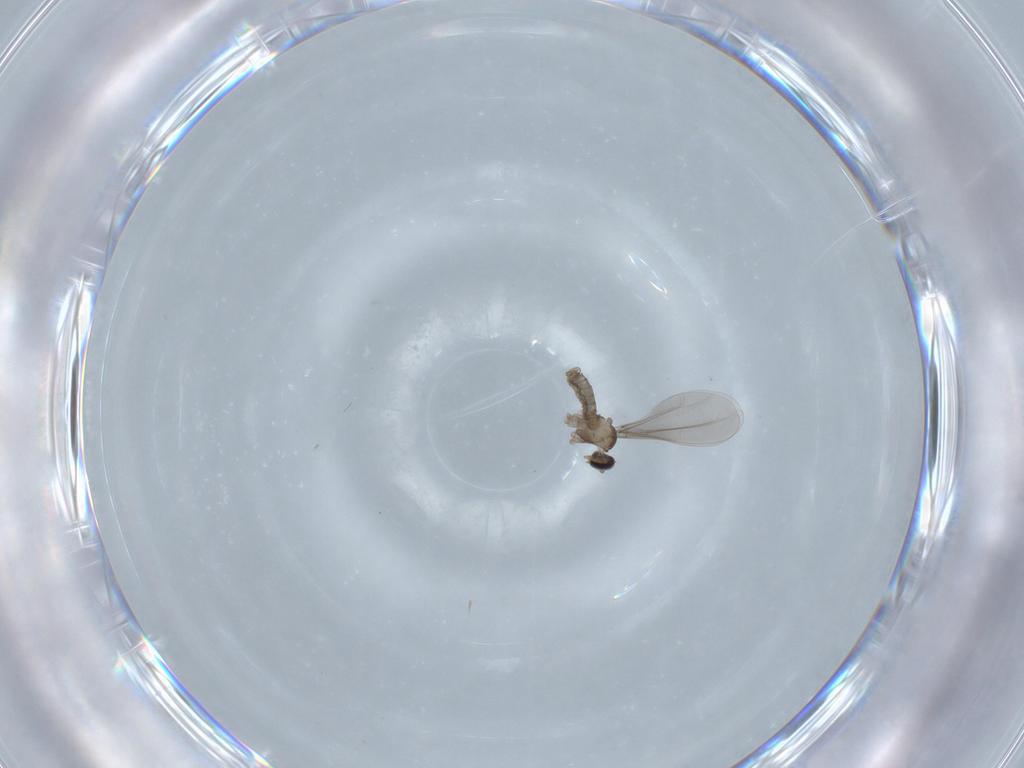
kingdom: Animalia
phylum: Arthropoda
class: Insecta
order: Diptera
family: Cecidomyiidae
